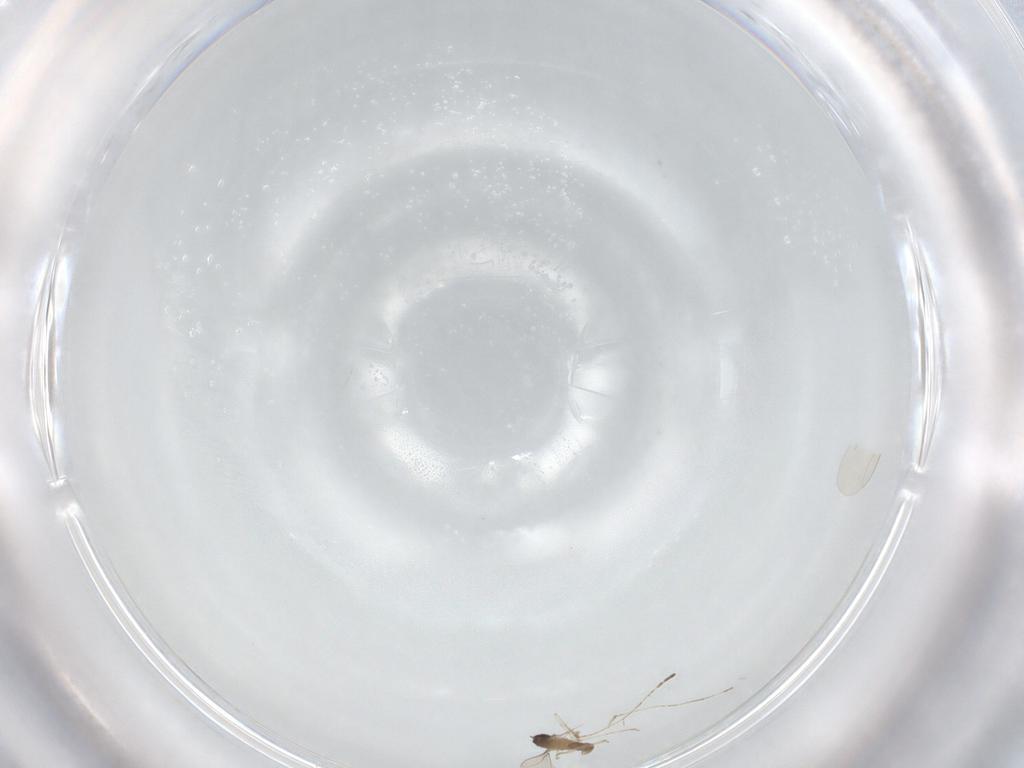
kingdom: Animalia
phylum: Arthropoda
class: Insecta
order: Diptera
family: Cecidomyiidae
